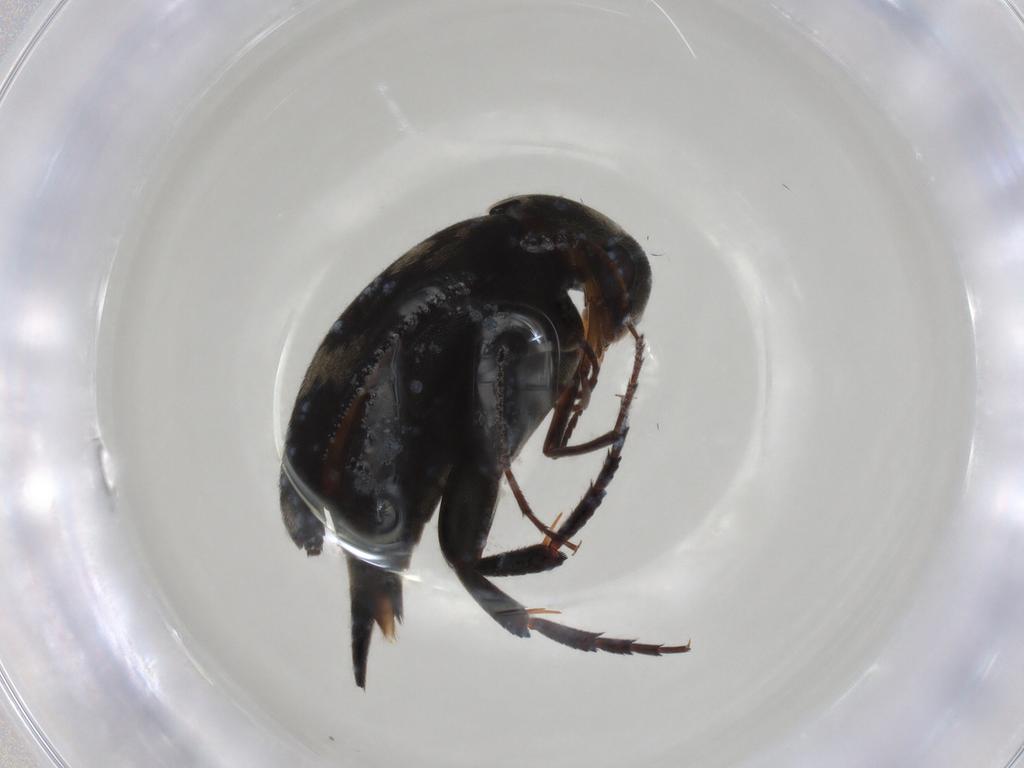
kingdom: Animalia
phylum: Arthropoda
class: Insecta
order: Coleoptera
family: Mordellidae
